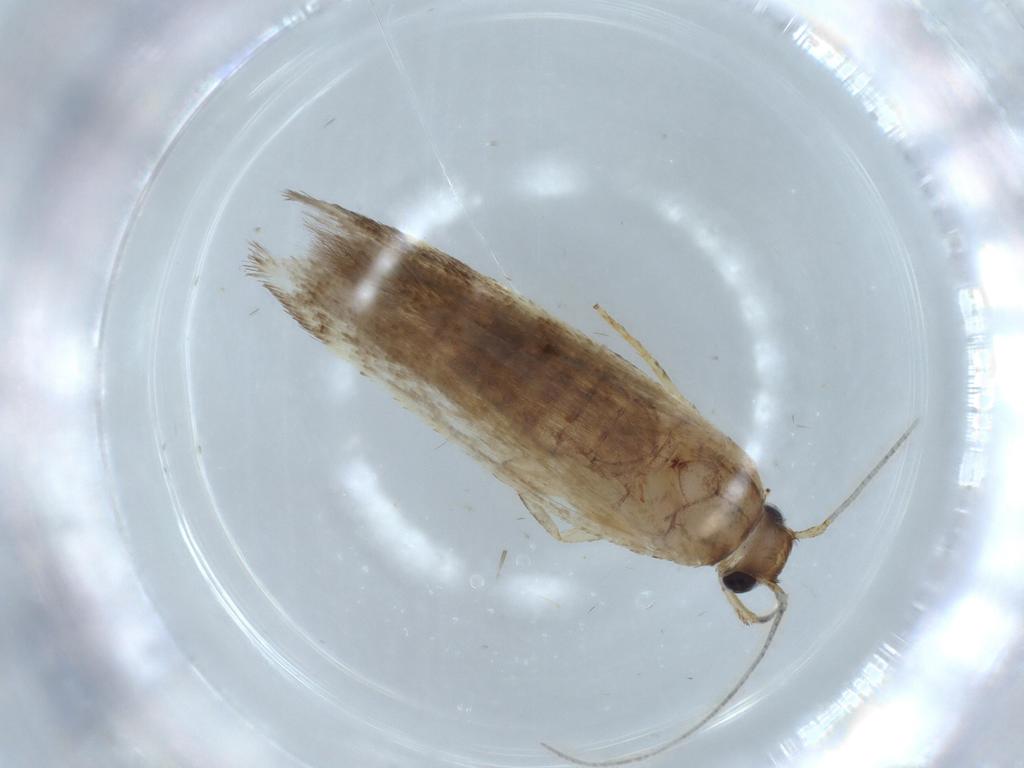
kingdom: Animalia
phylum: Arthropoda
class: Insecta
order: Lepidoptera
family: Gelechiidae
